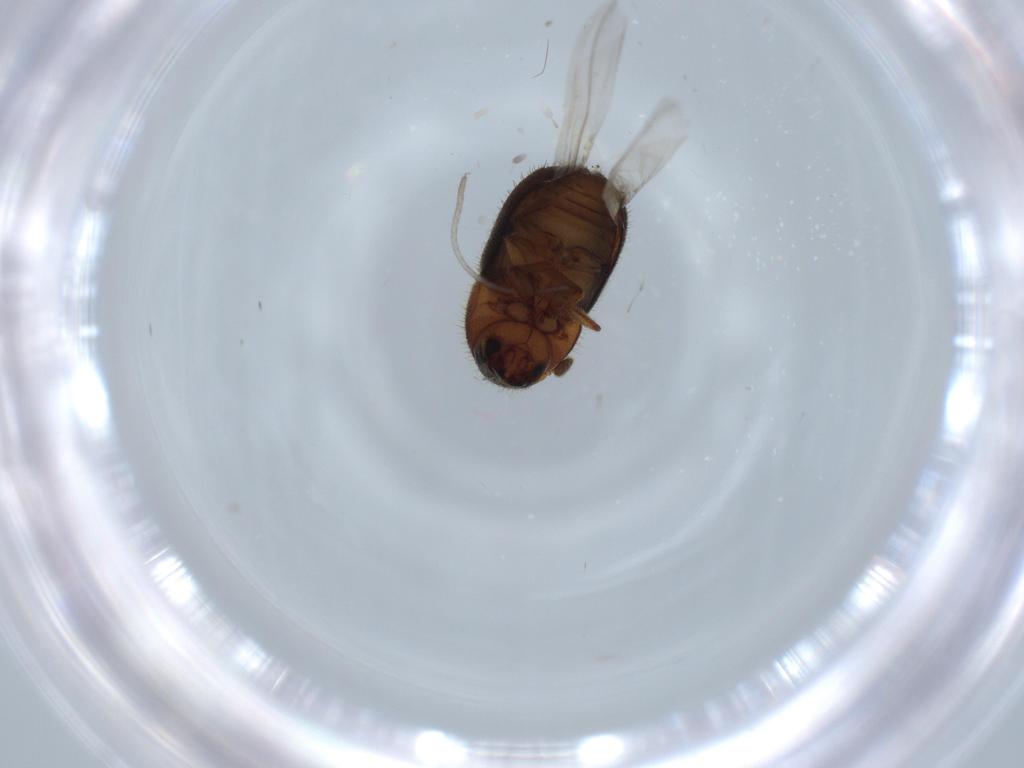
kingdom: Animalia
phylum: Arthropoda
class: Insecta
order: Coleoptera
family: Curculionidae
